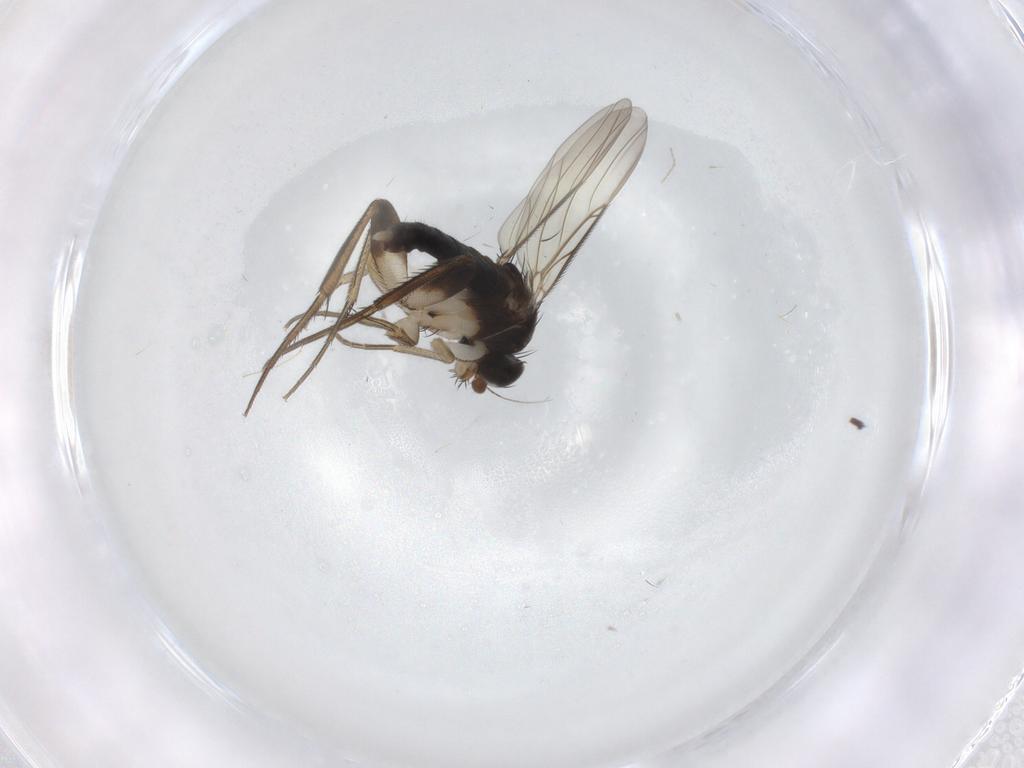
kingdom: Animalia
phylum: Arthropoda
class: Insecta
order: Diptera
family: Phoridae
